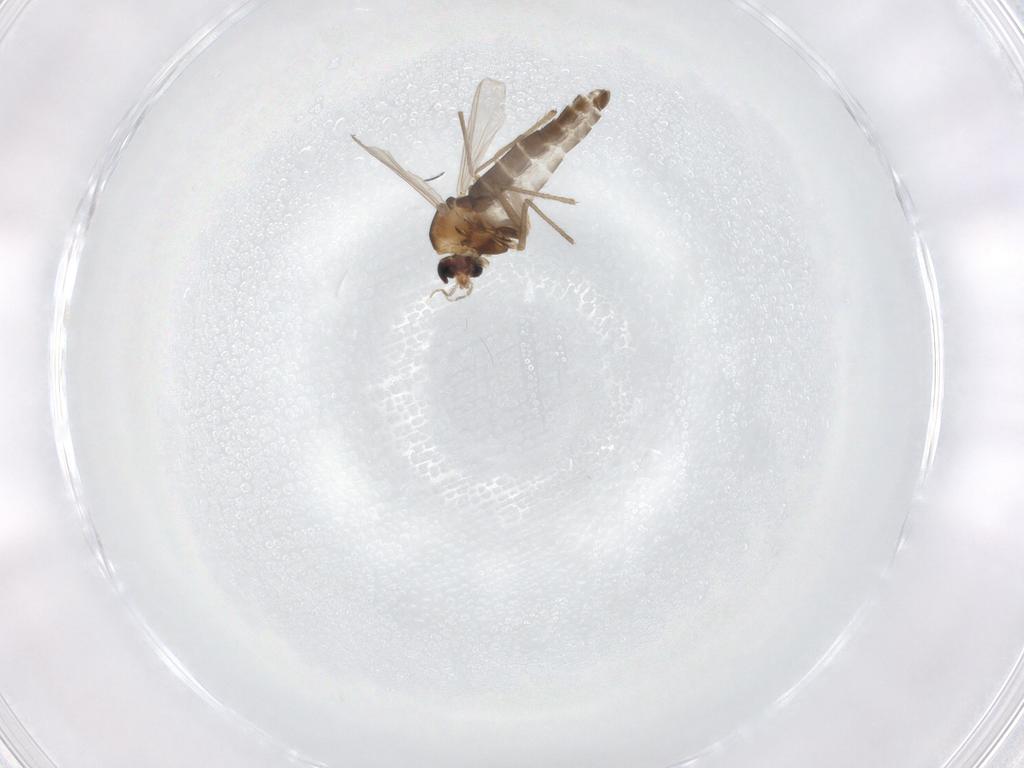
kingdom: Animalia
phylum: Arthropoda
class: Insecta
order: Diptera
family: Chironomidae
